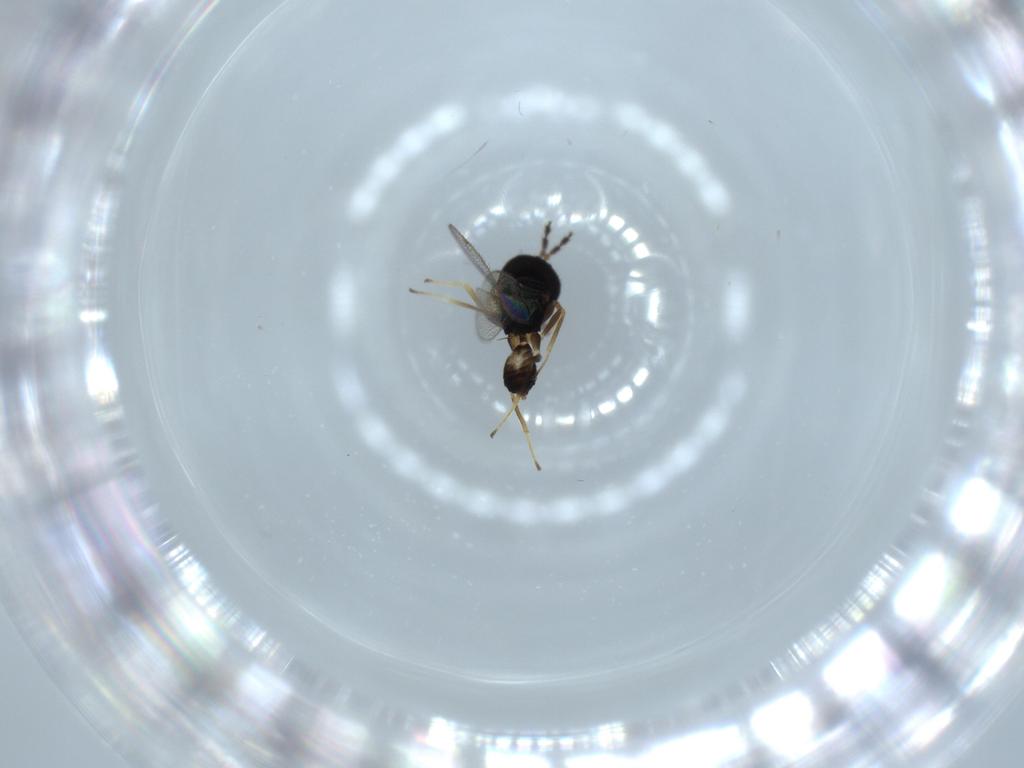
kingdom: Animalia
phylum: Arthropoda
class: Insecta
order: Hymenoptera
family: Pteromalidae
